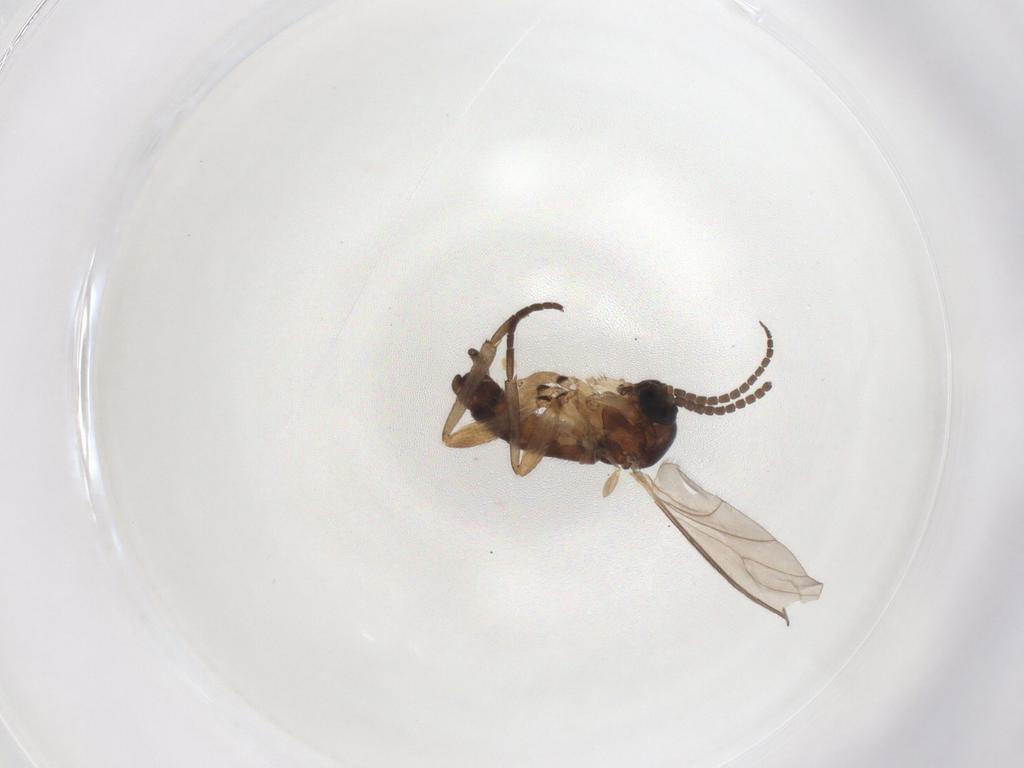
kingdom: Animalia
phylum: Arthropoda
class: Insecta
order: Diptera
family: Sciaridae
